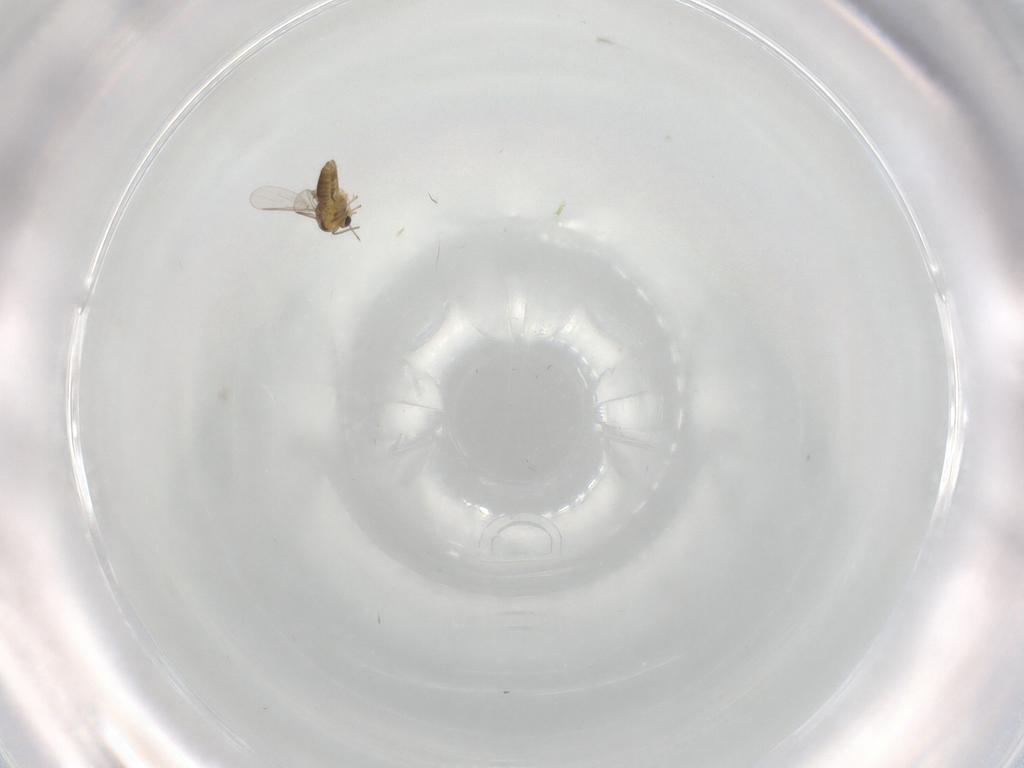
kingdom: Animalia
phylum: Arthropoda
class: Insecta
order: Diptera
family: Chironomidae
